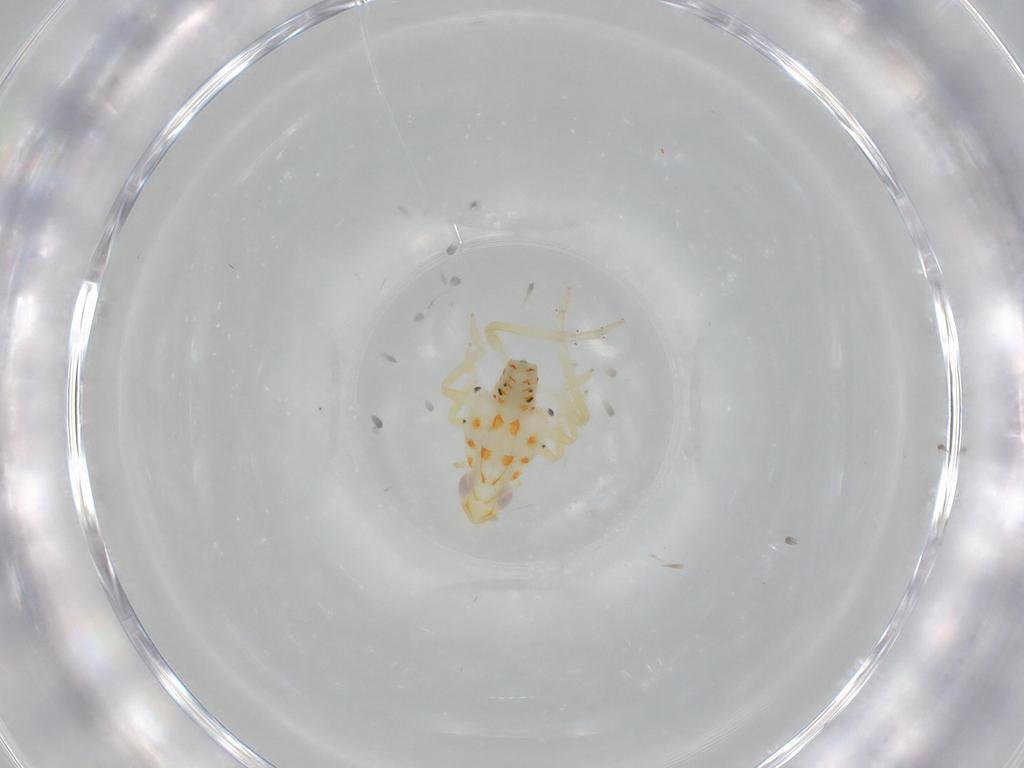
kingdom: Animalia
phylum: Arthropoda
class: Insecta
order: Hemiptera
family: Tropiduchidae
